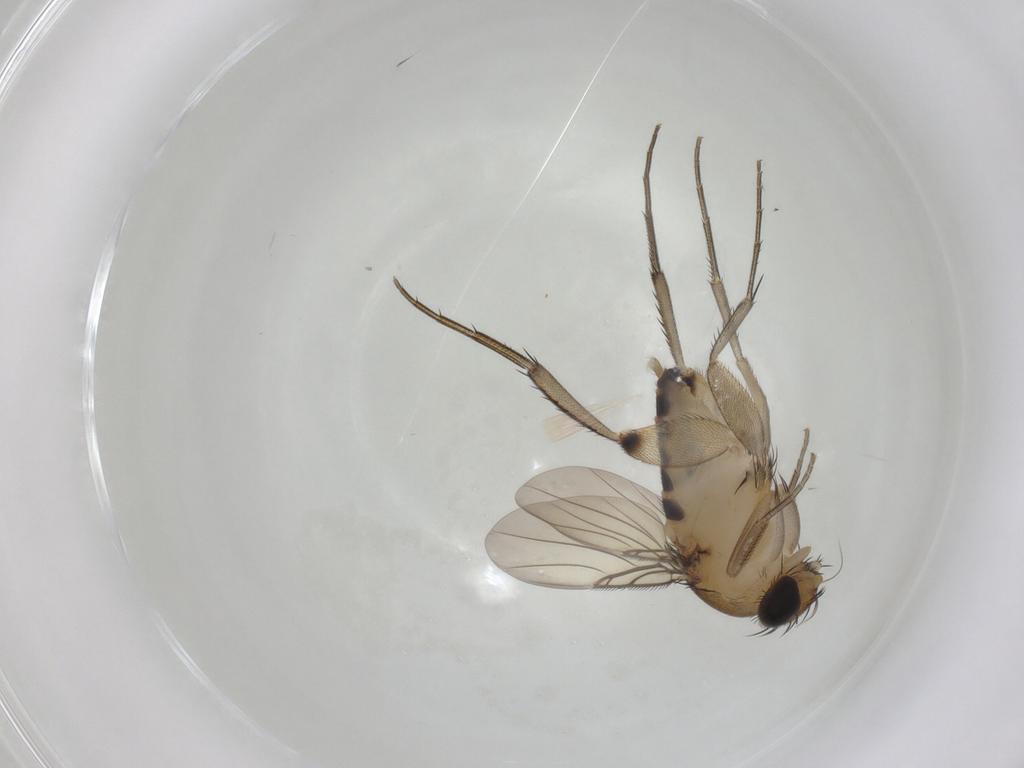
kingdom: Animalia
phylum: Arthropoda
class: Insecta
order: Diptera
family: Phoridae
